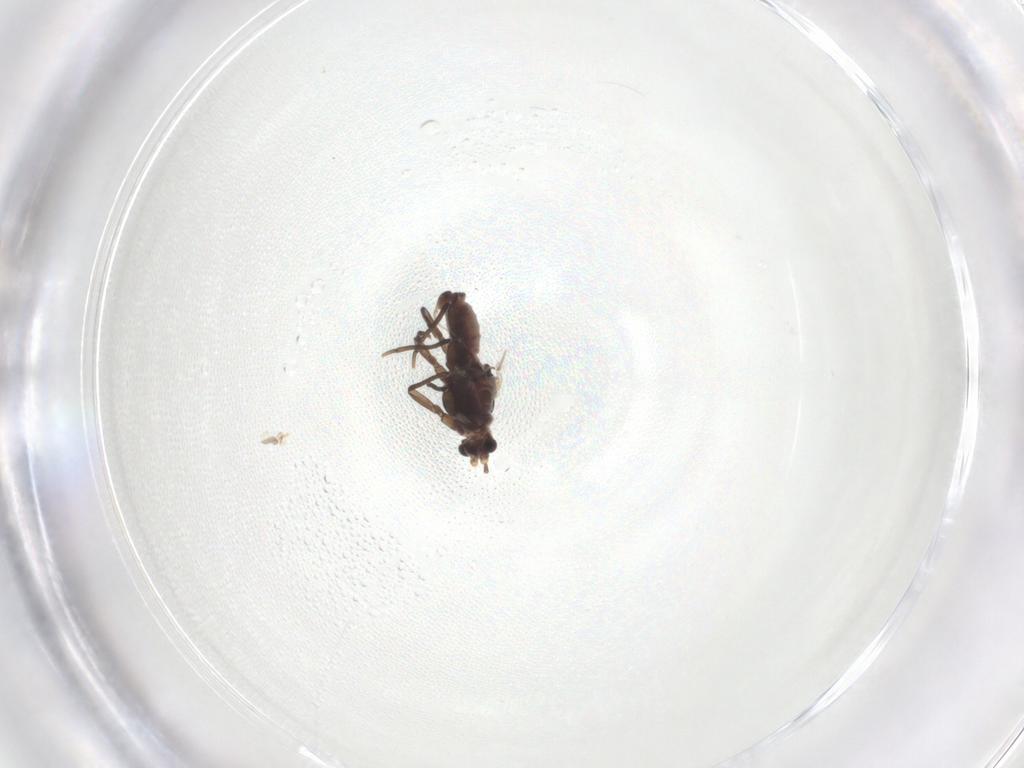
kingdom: Animalia
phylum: Arthropoda
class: Insecta
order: Hemiptera
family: Matsucoccidae
